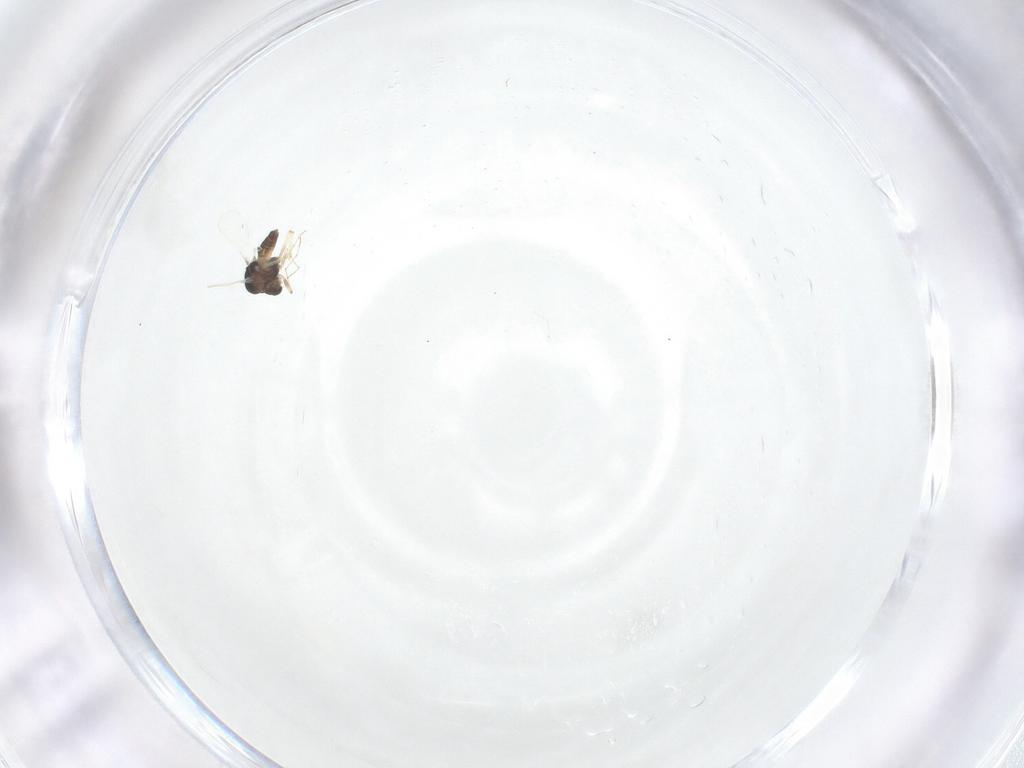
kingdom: Animalia
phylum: Arthropoda
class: Insecta
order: Diptera
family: Chironomidae
